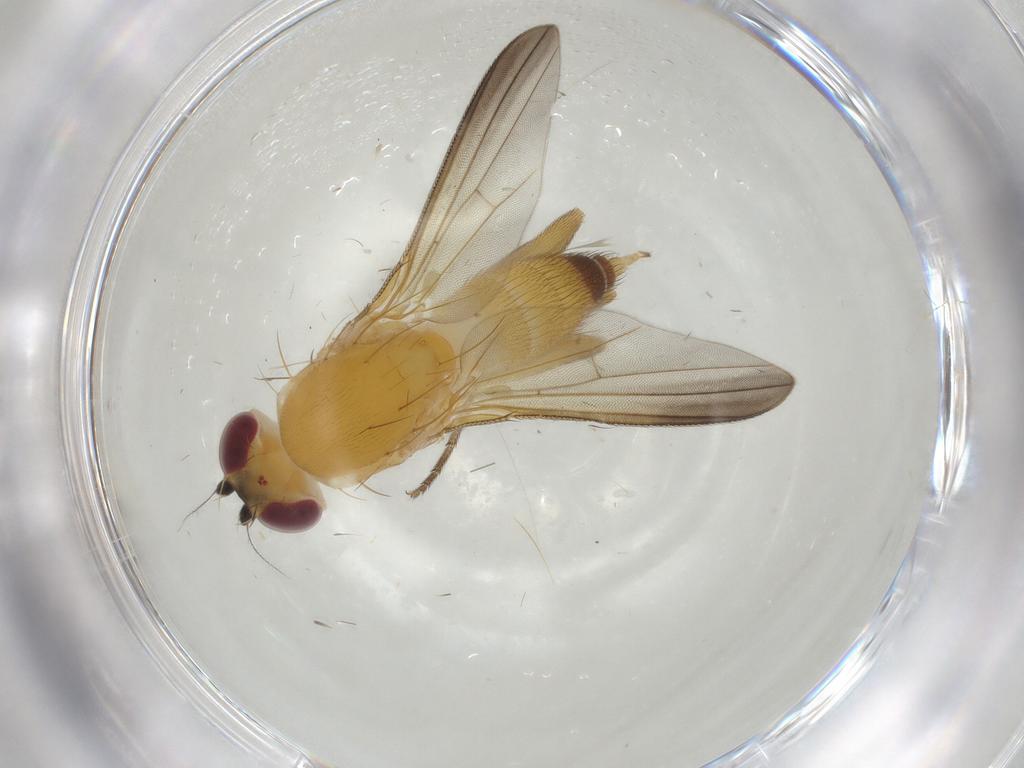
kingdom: Animalia
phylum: Arthropoda
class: Insecta
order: Diptera
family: Clusiidae
